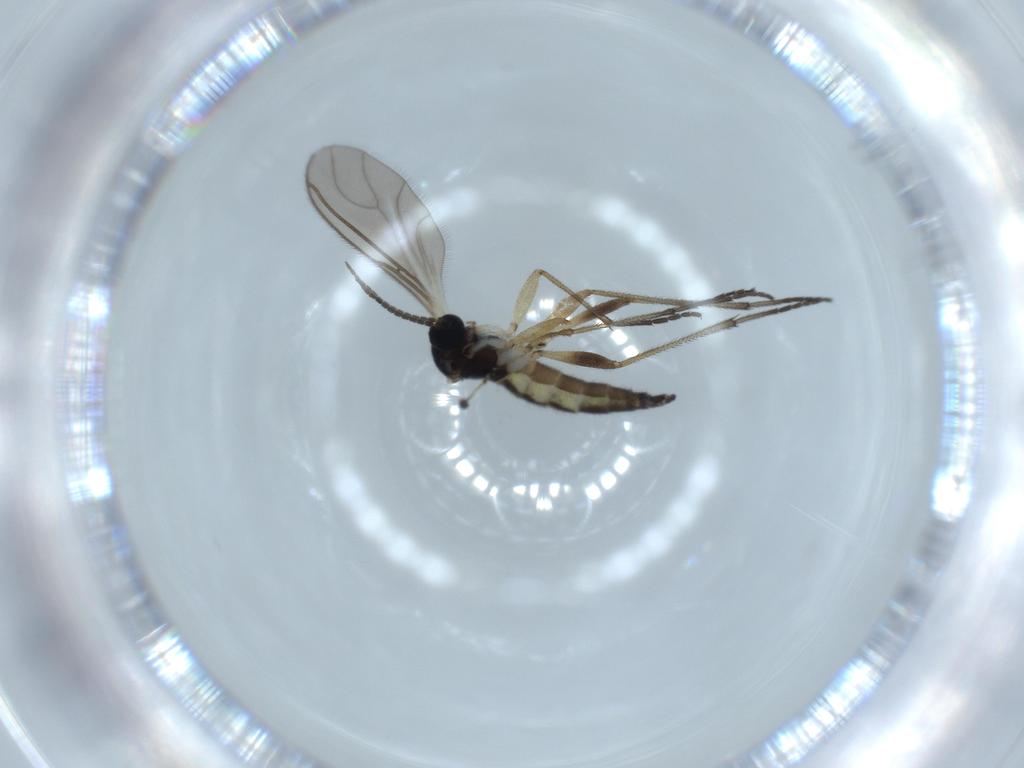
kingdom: Animalia
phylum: Arthropoda
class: Insecta
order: Diptera
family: Sciaridae
